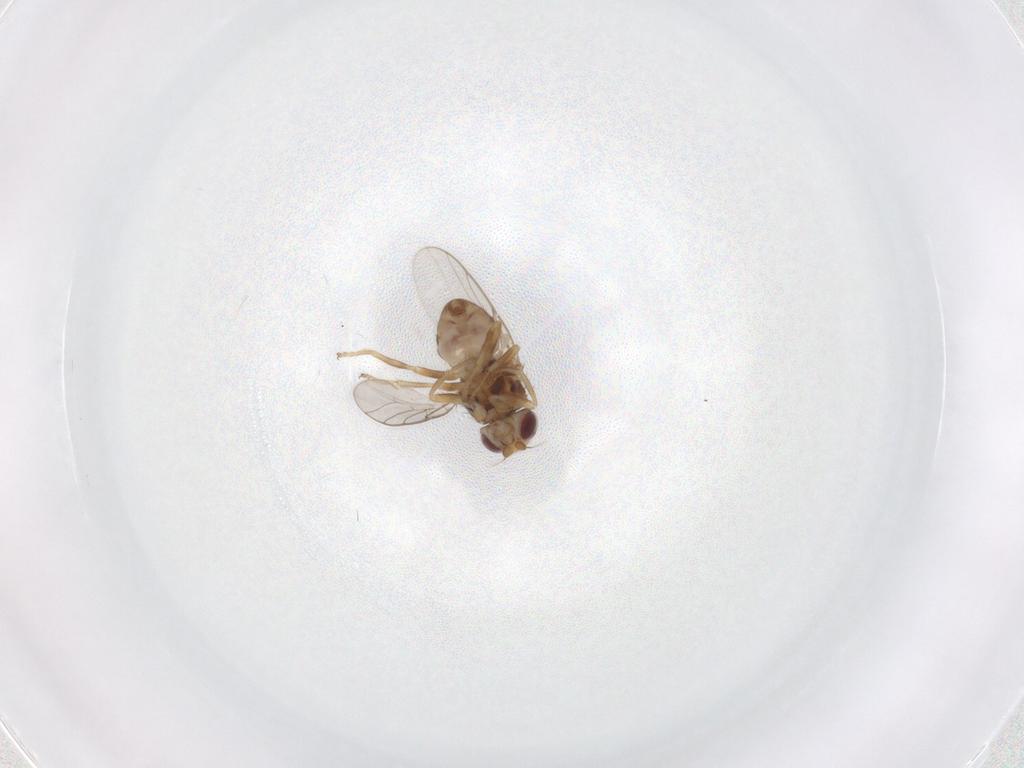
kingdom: Animalia
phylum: Arthropoda
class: Insecta
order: Diptera
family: Chloropidae
